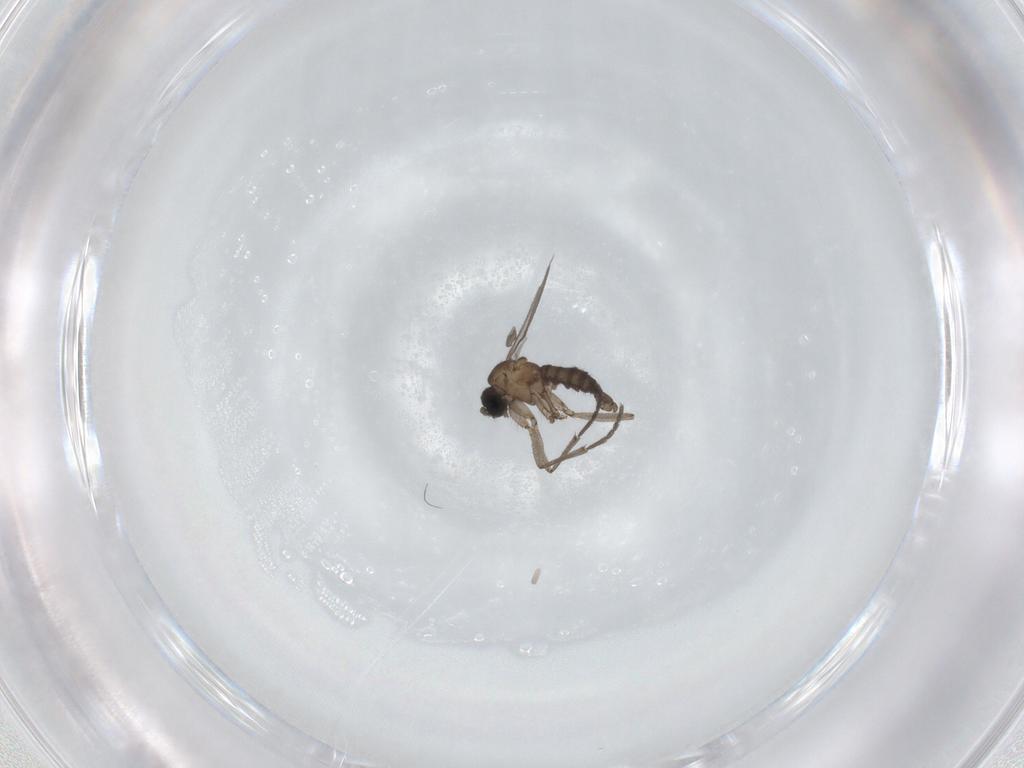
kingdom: Animalia
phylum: Arthropoda
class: Insecta
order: Diptera
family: Sciaridae
